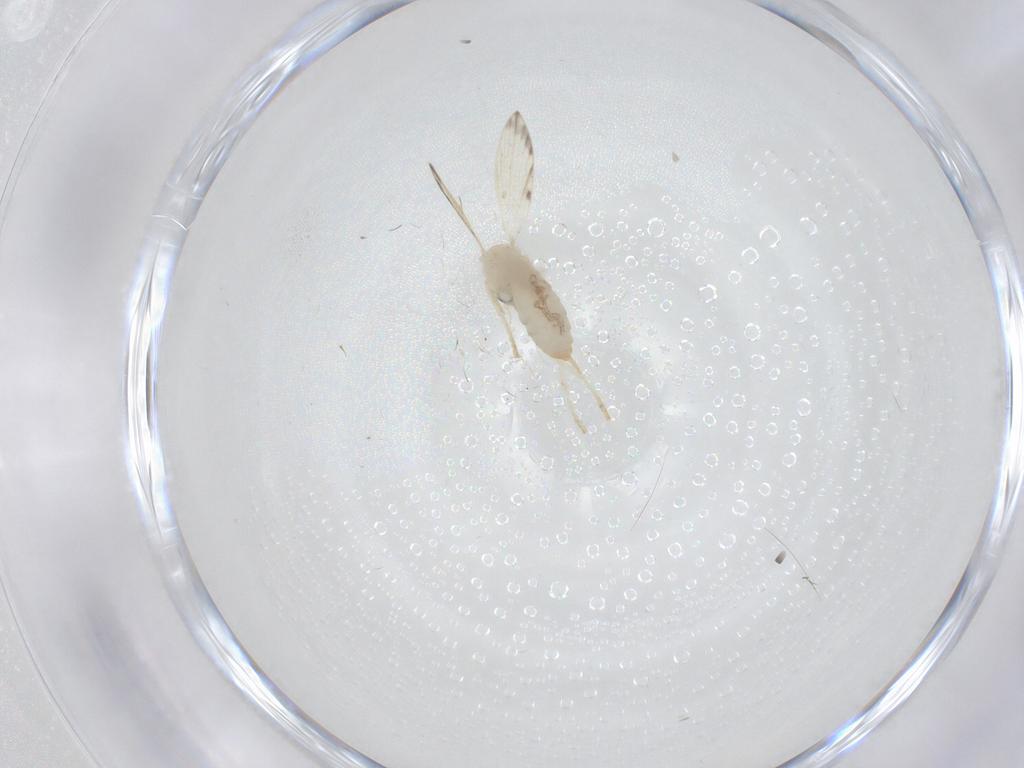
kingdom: Animalia
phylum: Arthropoda
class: Insecta
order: Diptera
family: Psychodidae
